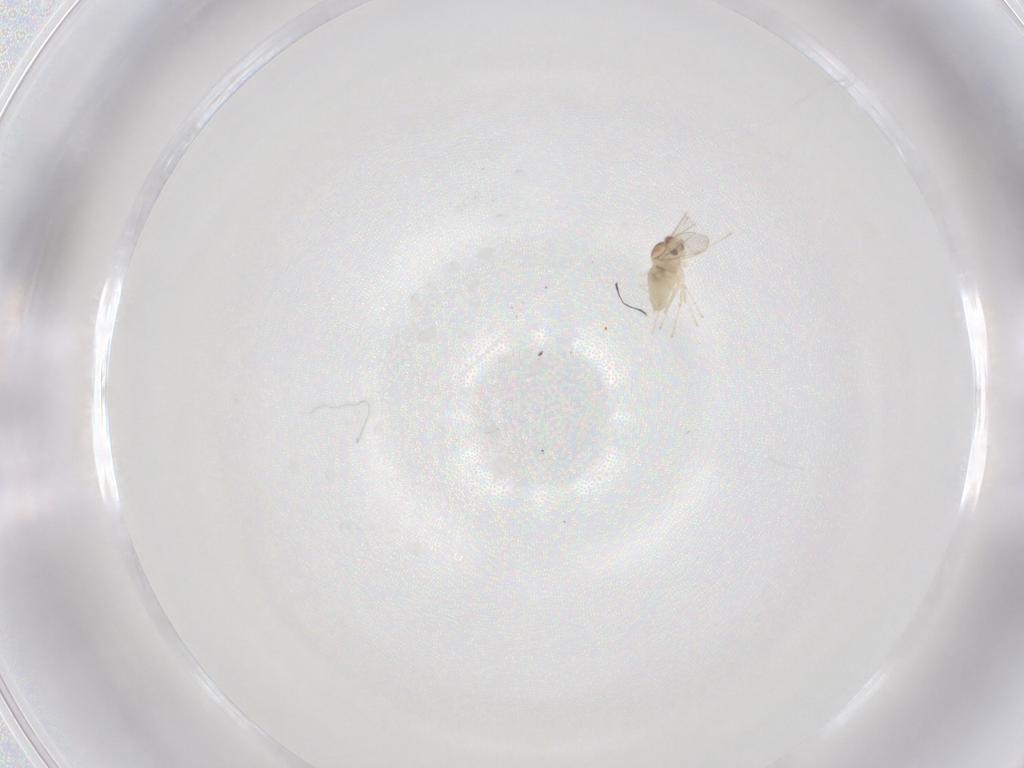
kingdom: Animalia
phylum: Arthropoda
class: Insecta
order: Diptera
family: Cecidomyiidae
